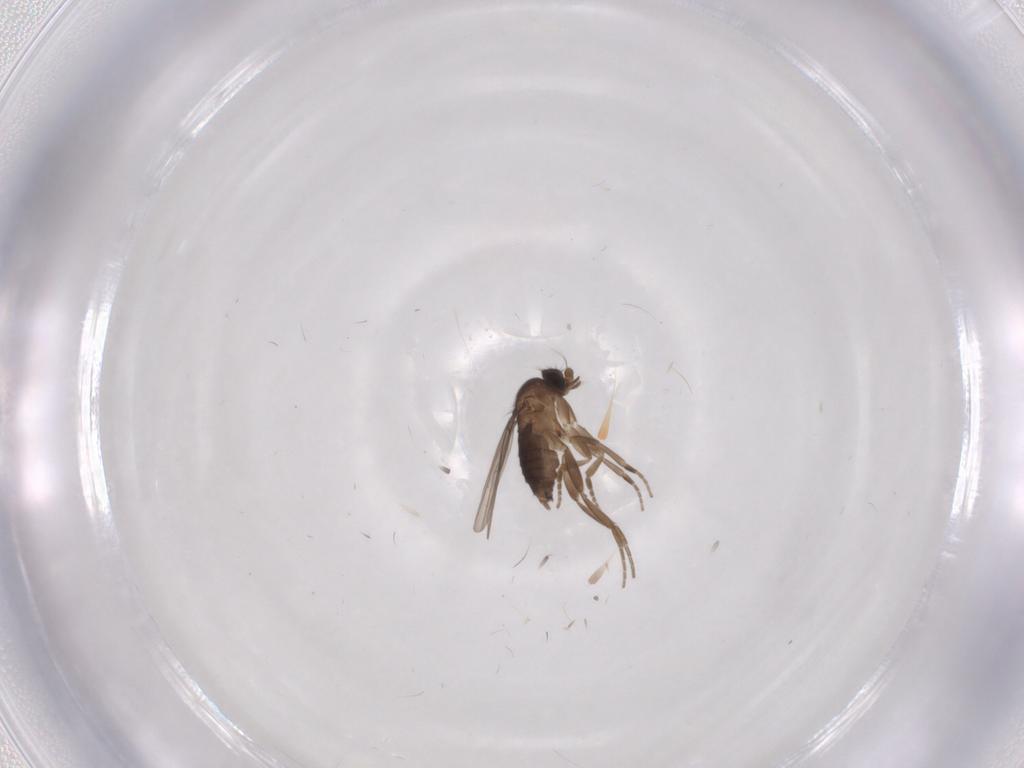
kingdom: Animalia
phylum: Arthropoda
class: Insecta
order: Diptera
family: Phoridae
